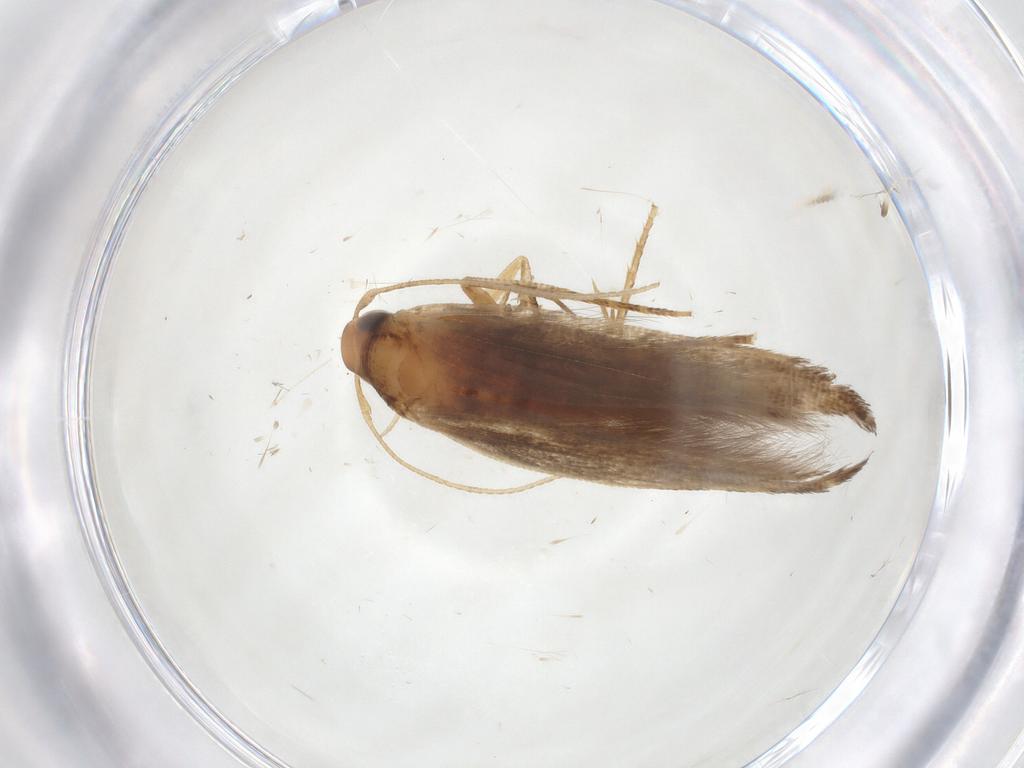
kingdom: Animalia
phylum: Arthropoda
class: Insecta
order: Lepidoptera
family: Cosmopterigidae
